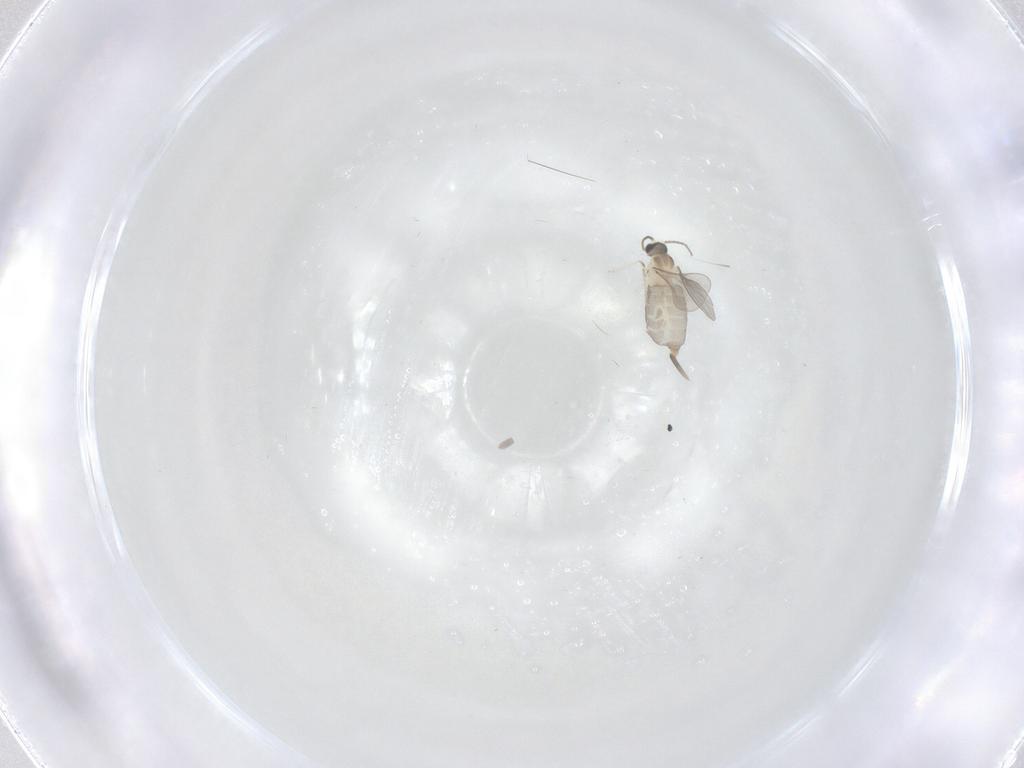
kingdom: Animalia
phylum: Arthropoda
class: Insecta
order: Diptera
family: Cecidomyiidae
